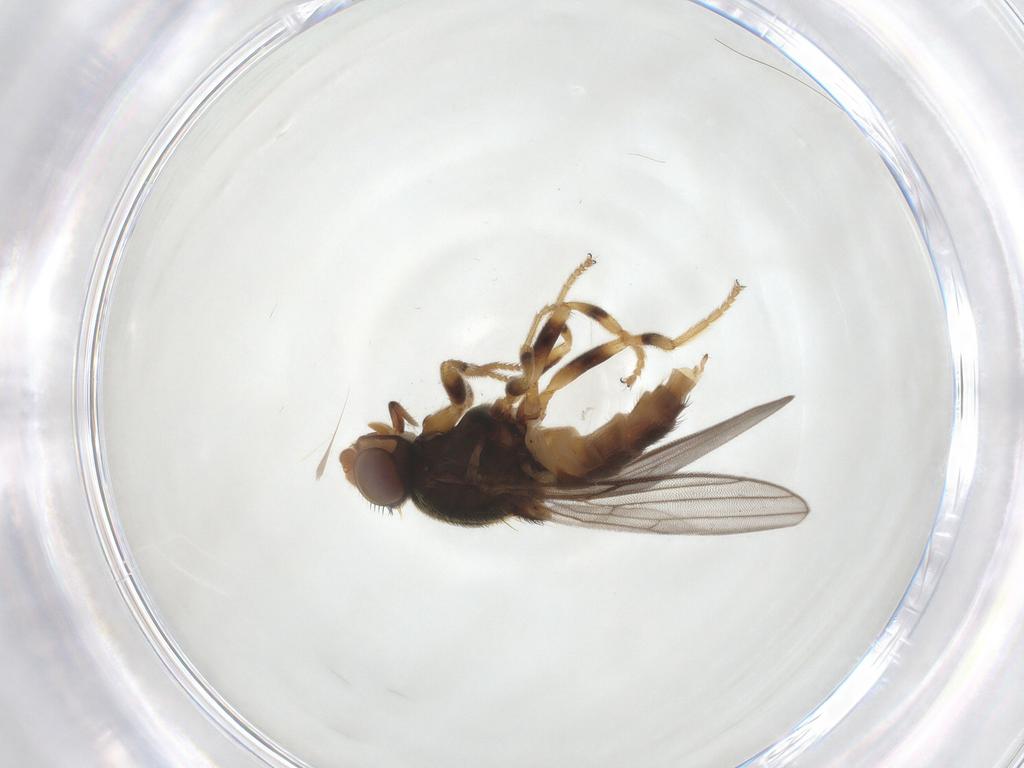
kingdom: Animalia
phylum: Arthropoda
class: Insecta
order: Diptera
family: Chloropidae
